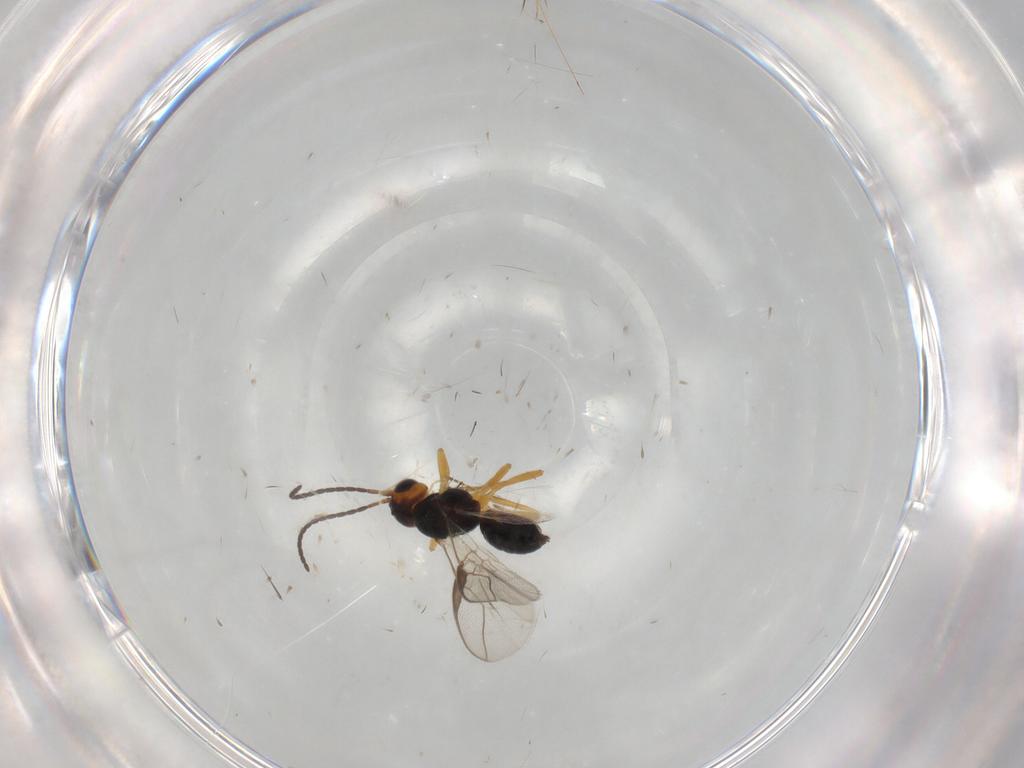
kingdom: Animalia
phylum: Arthropoda
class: Insecta
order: Hymenoptera
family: Braconidae
